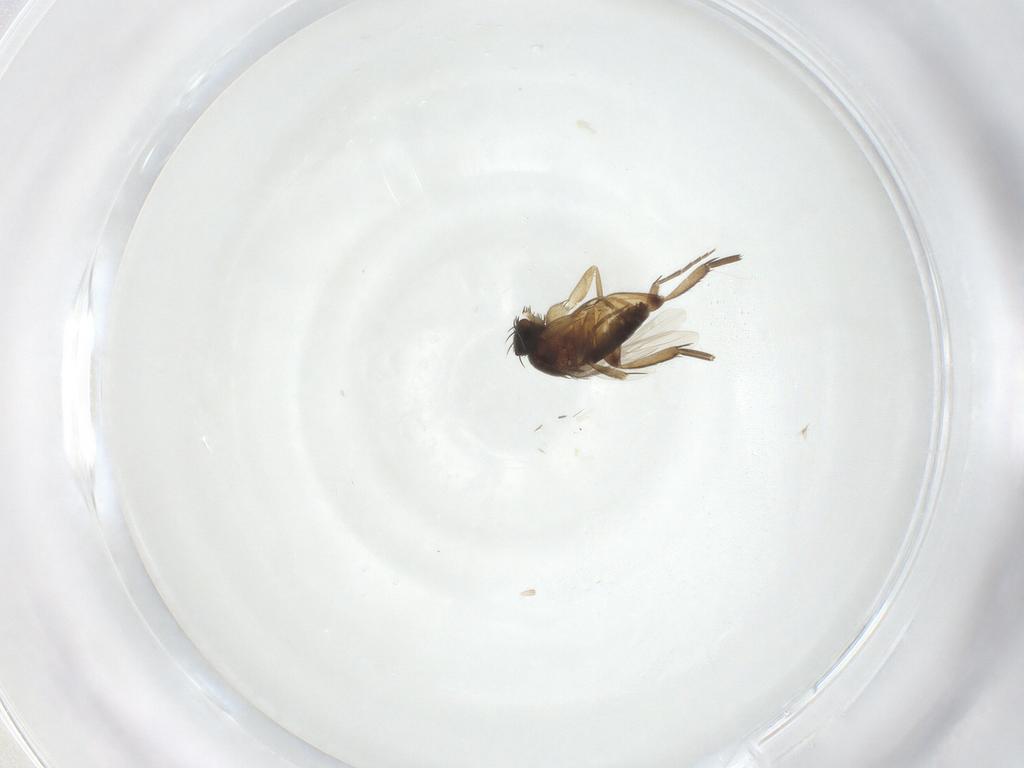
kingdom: Animalia
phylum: Arthropoda
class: Insecta
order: Diptera
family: Phoridae
